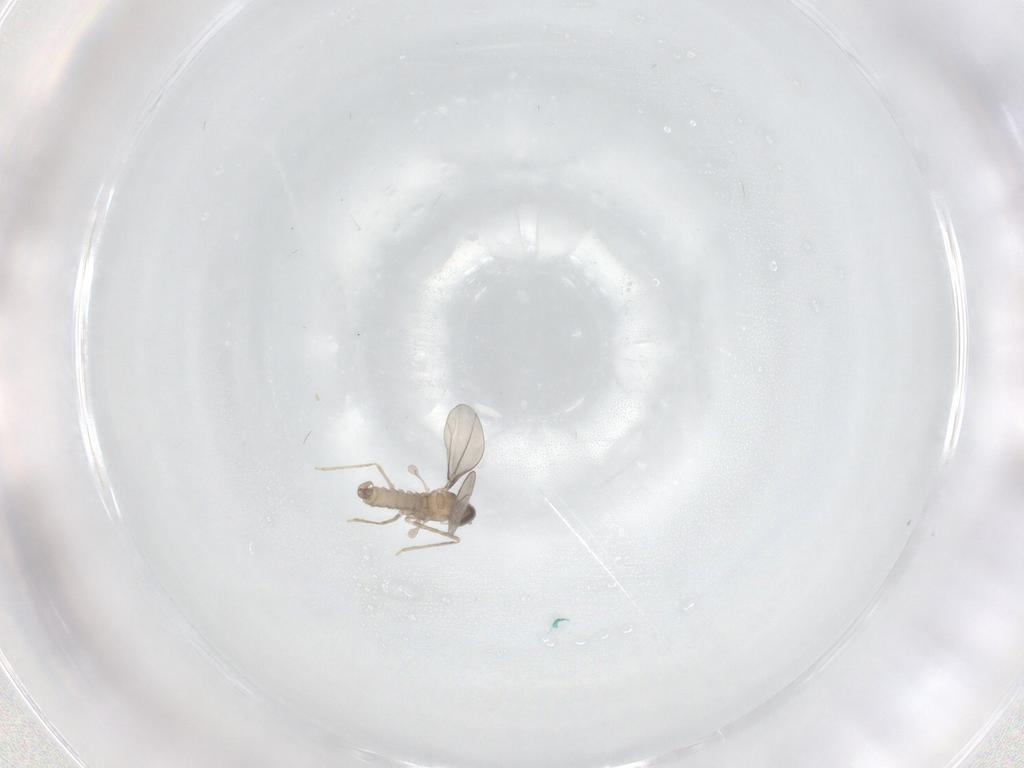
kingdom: Animalia
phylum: Arthropoda
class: Insecta
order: Diptera
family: Cecidomyiidae
